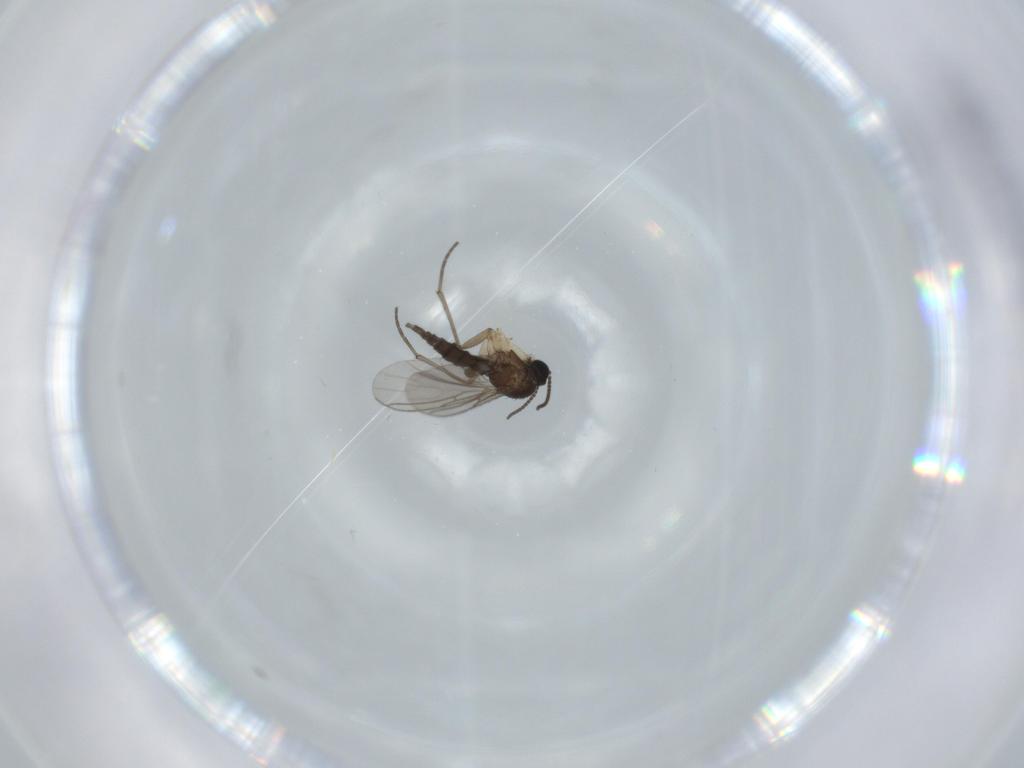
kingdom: Animalia
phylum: Arthropoda
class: Insecta
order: Diptera
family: Sciaridae
